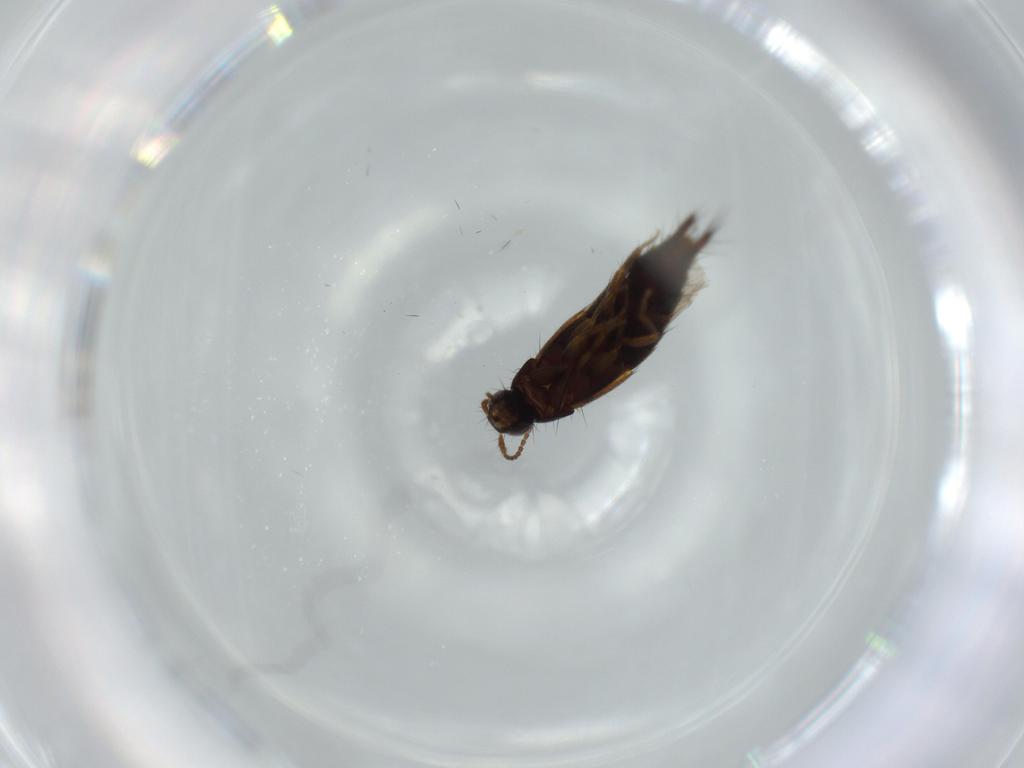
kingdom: Animalia
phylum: Arthropoda
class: Insecta
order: Coleoptera
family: Staphylinidae
